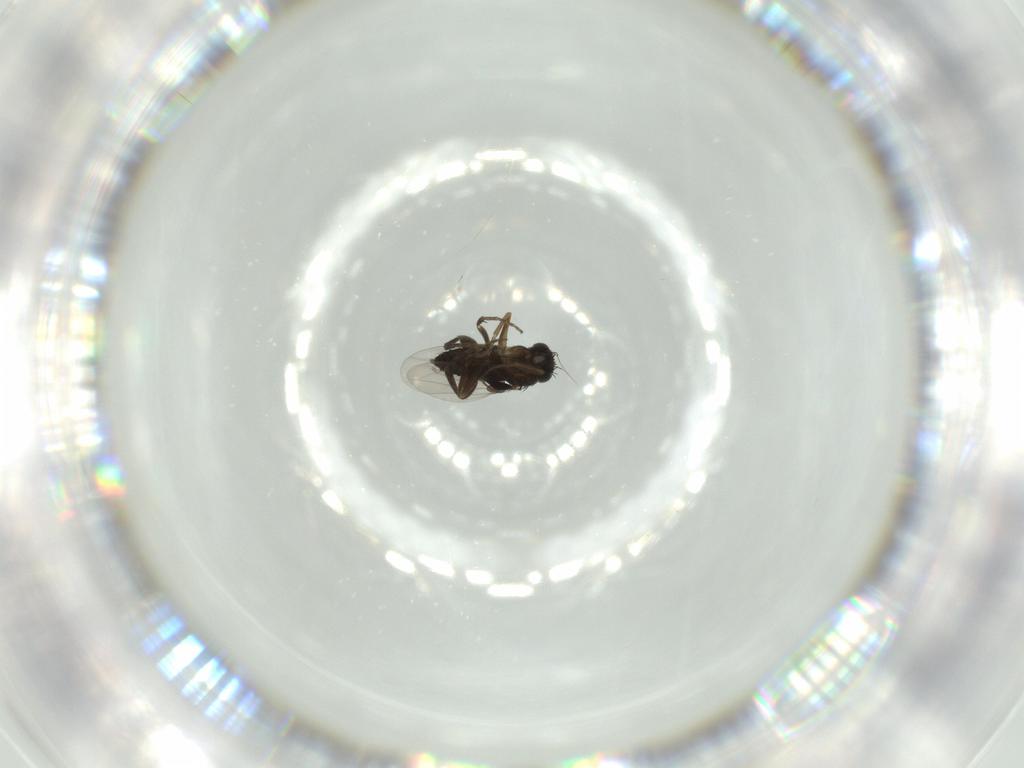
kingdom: Animalia
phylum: Arthropoda
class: Insecta
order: Diptera
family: Phoridae
